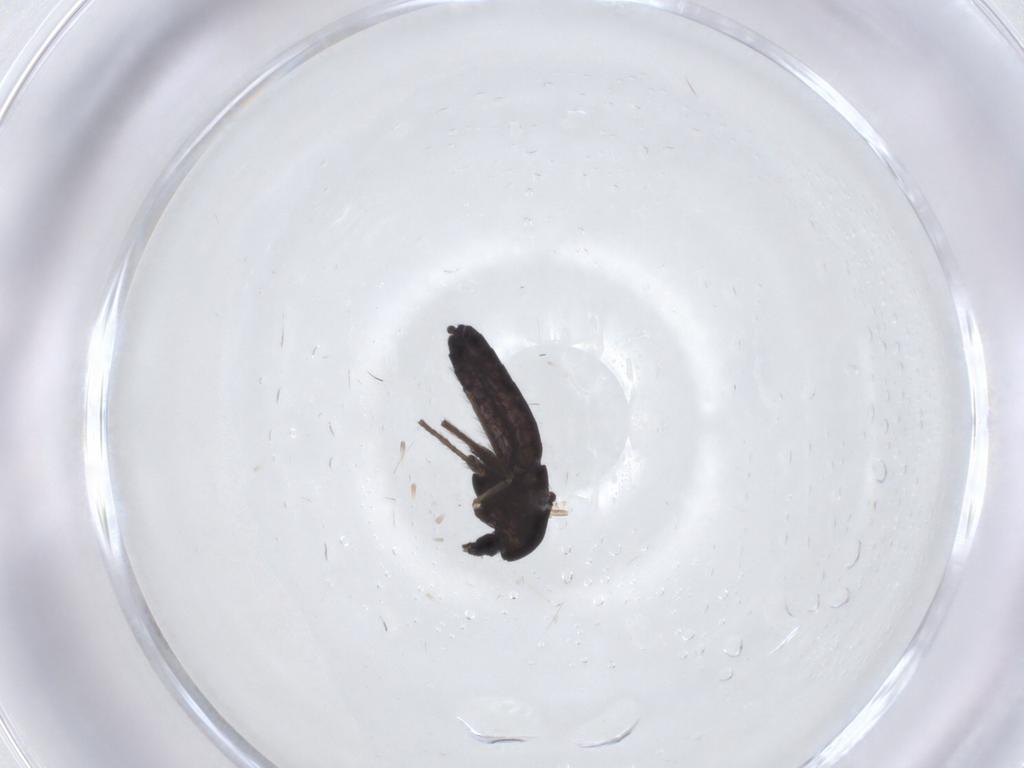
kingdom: Animalia
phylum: Arthropoda
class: Insecta
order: Diptera
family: Chironomidae
